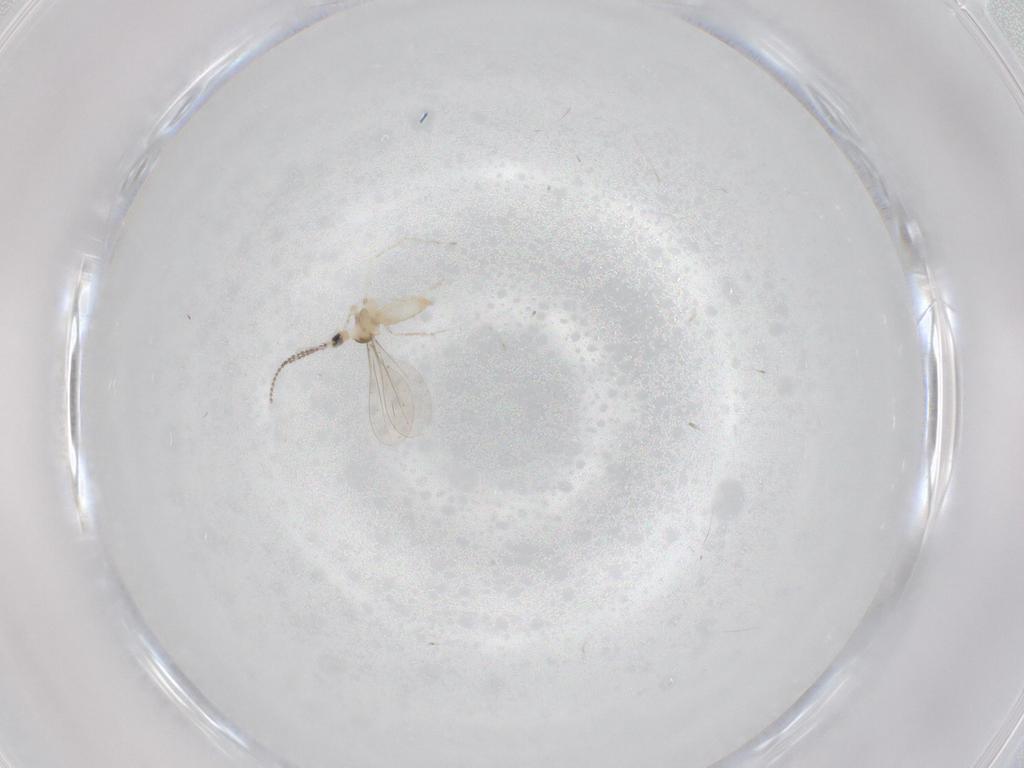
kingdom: Animalia
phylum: Arthropoda
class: Insecta
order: Diptera
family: Cecidomyiidae
